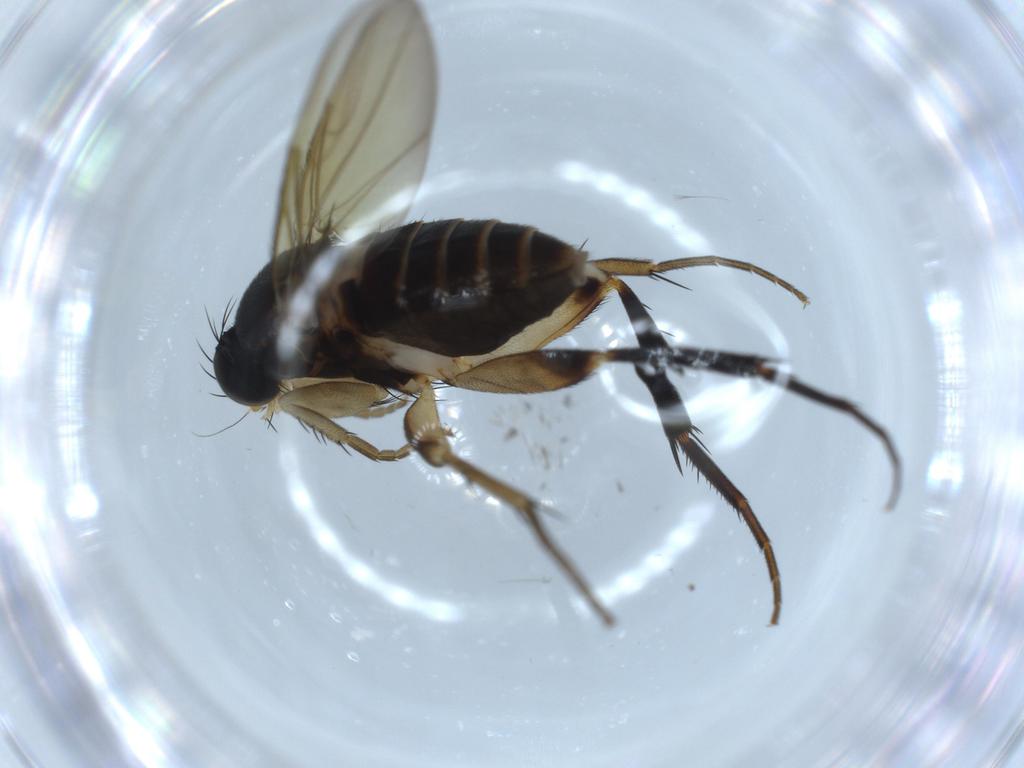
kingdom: Animalia
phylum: Arthropoda
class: Insecta
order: Diptera
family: Phoridae
